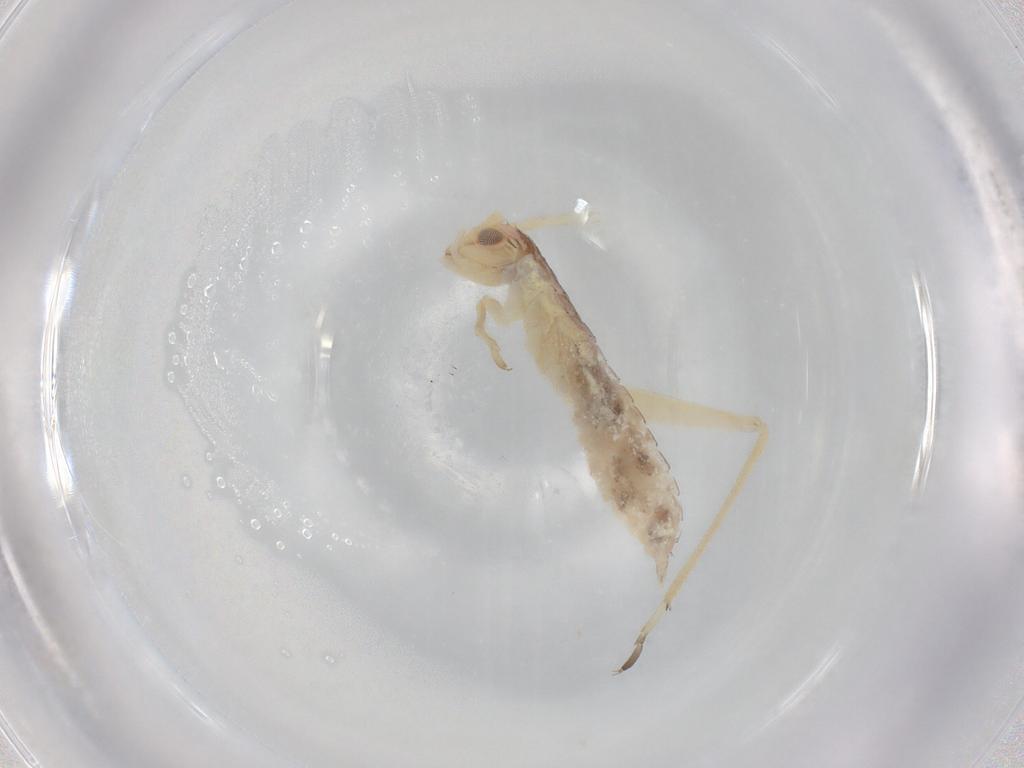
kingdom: Animalia
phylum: Arthropoda
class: Insecta
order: Orthoptera
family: Oecanthidae
